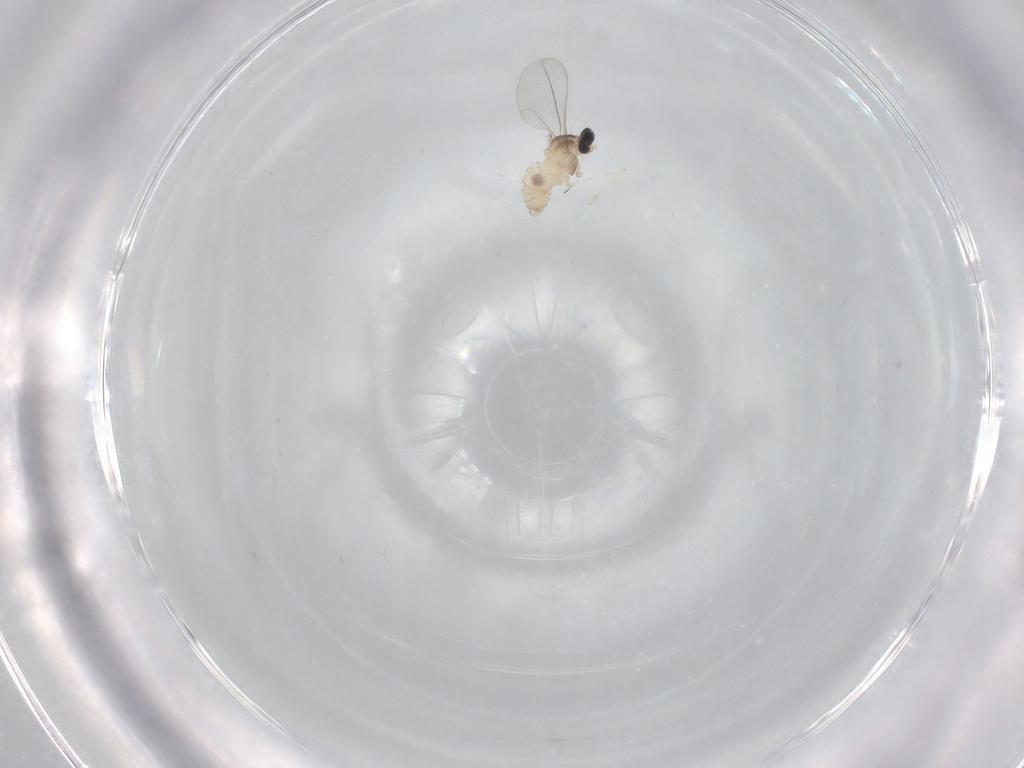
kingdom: Animalia
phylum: Arthropoda
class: Insecta
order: Diptera
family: Cecidomyiidae
